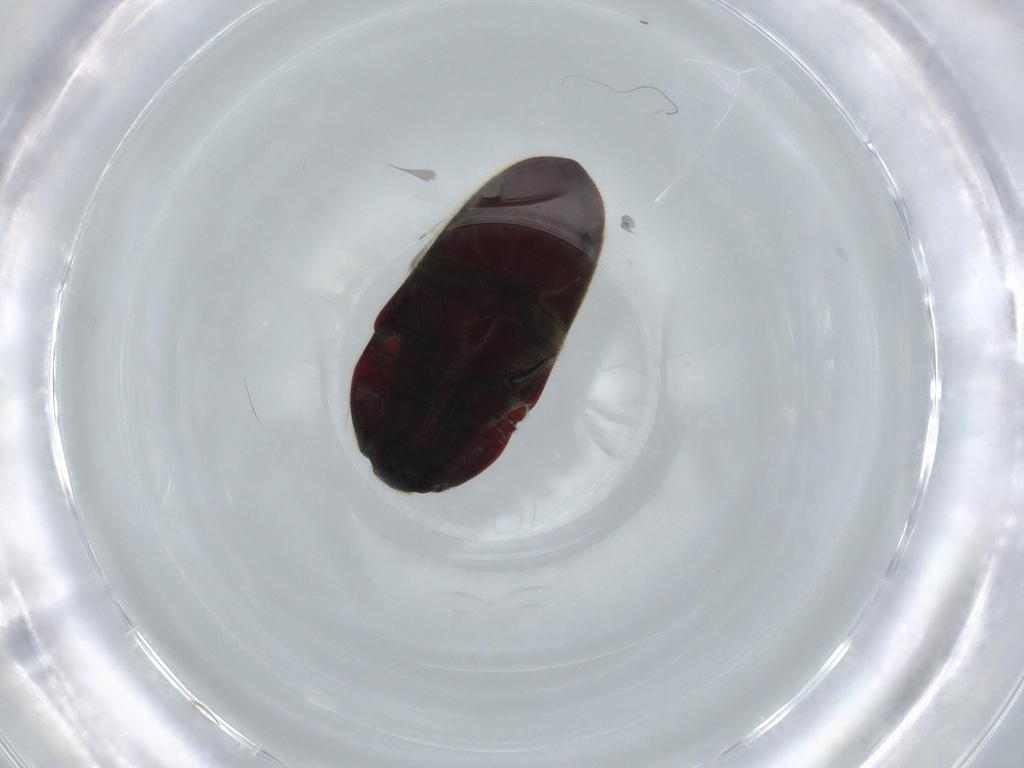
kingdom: Animalia
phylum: Arthropoda
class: Insecta
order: Coleoptera
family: Throscidae
